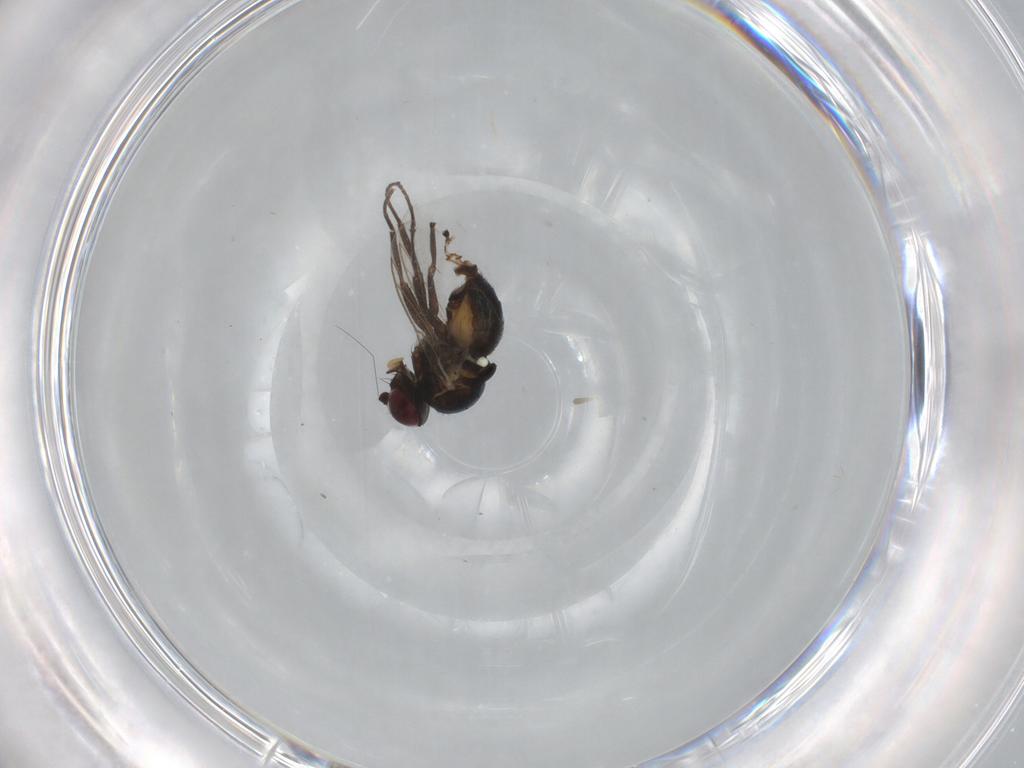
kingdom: Animalia
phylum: Arthropoda
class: Insecta
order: Diptera
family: Agromyzidae
